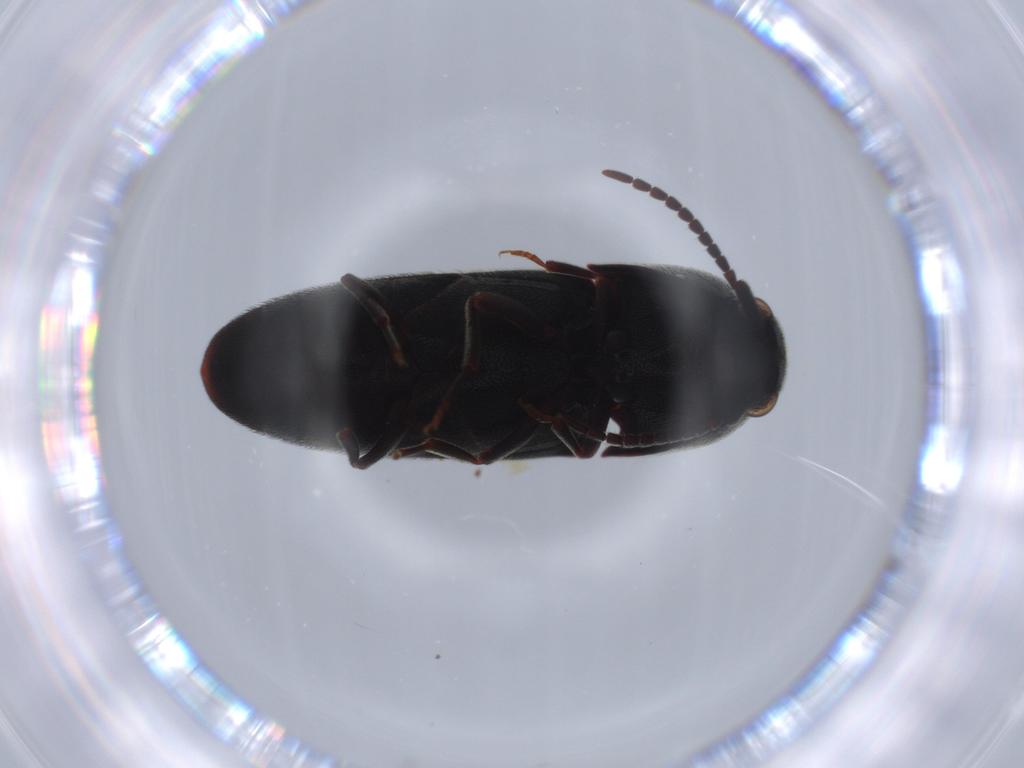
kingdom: Animalia
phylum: Arthropoda
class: Insecta
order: Coleoptera
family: Eucnemidae
